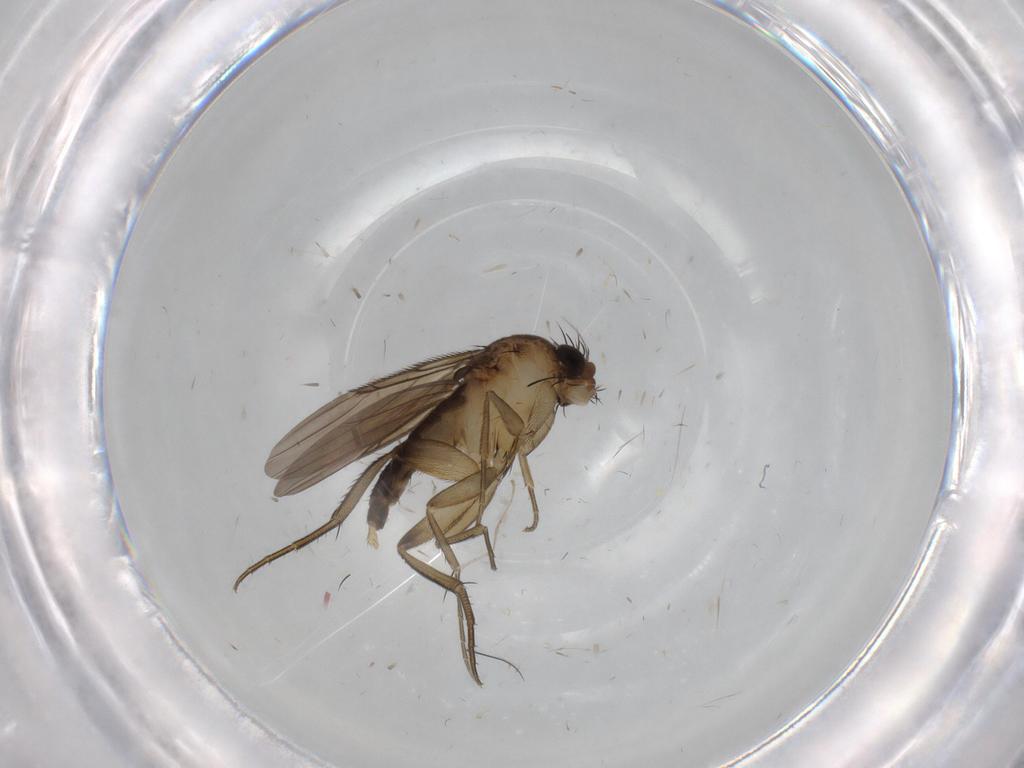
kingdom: Animalia
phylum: Arthropoda
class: Insecta
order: Diptera
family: Phoridae
